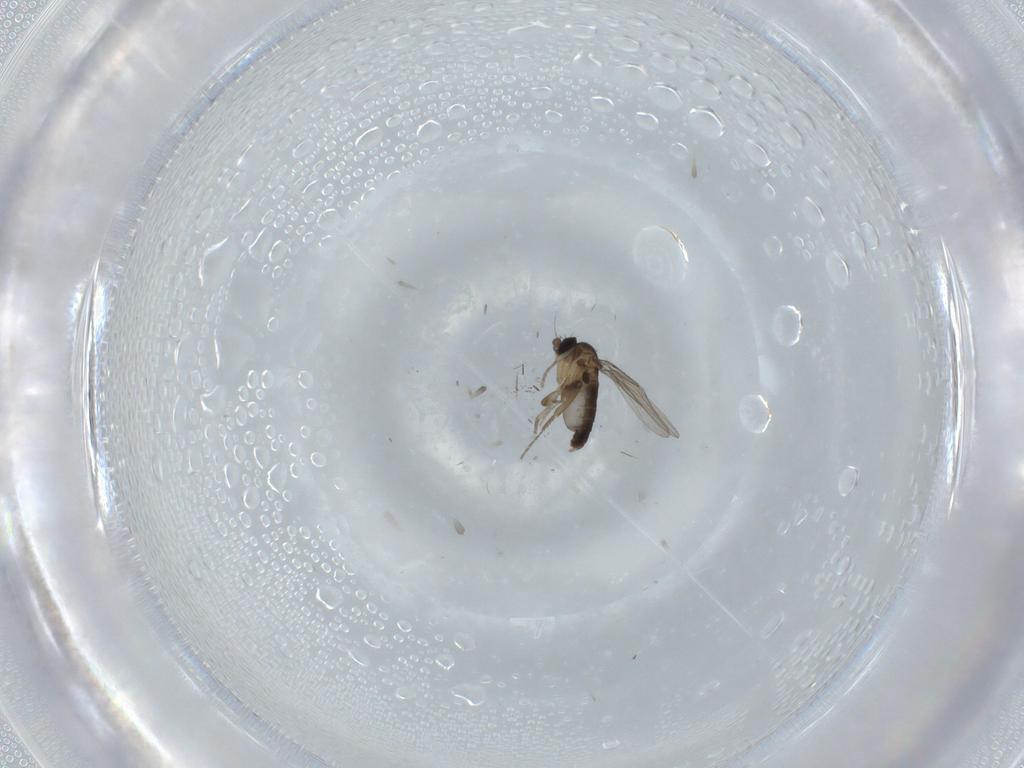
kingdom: Animalia
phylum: Arthropoda
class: Insecta
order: Diptera
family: Phoridae
